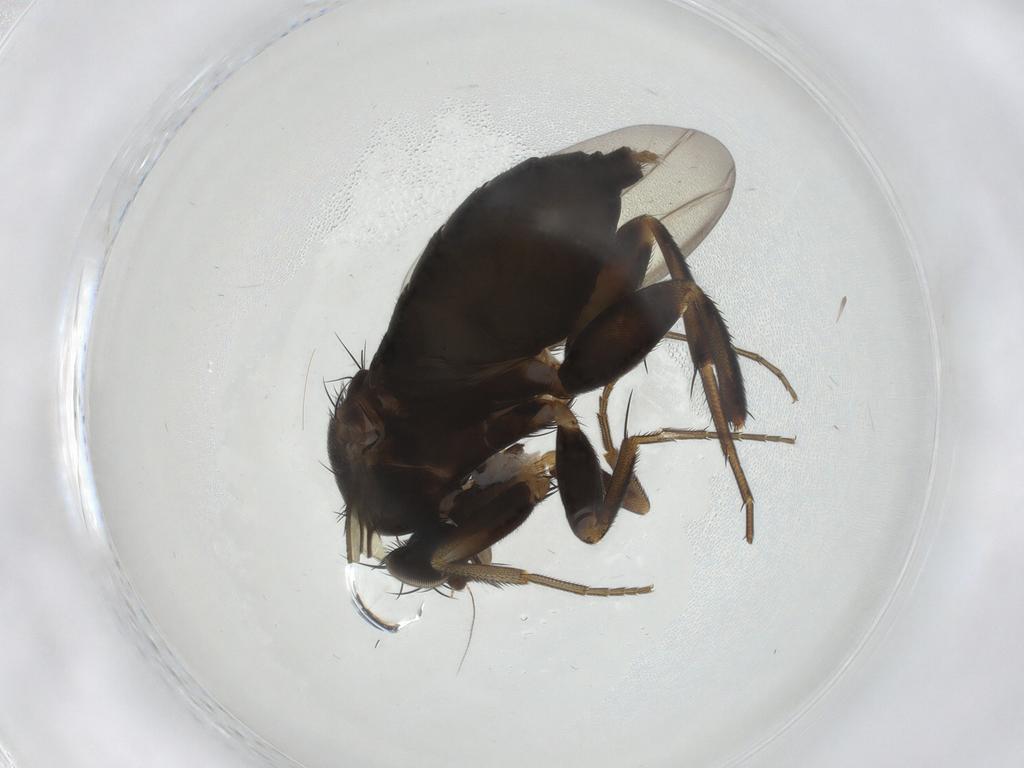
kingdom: Animalia
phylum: Arthropoda
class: Insecta
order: Diptera
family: Phoridae
